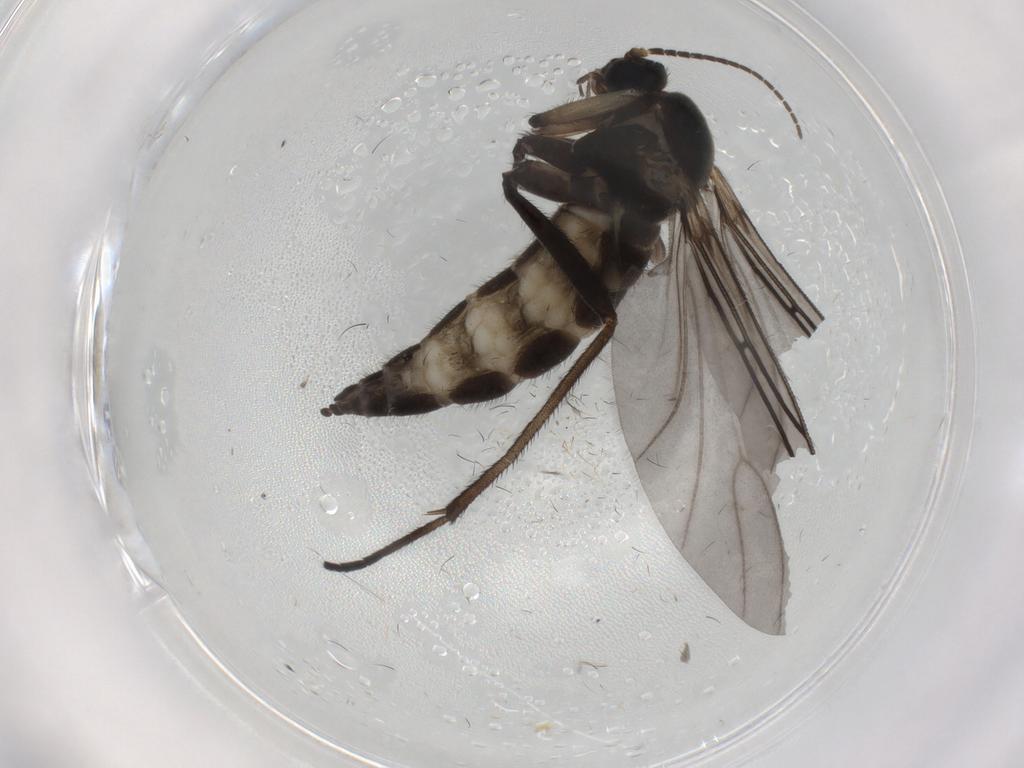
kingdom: Animalia
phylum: Arthropoda
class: Insecta
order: Diptera
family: Sciaridae
